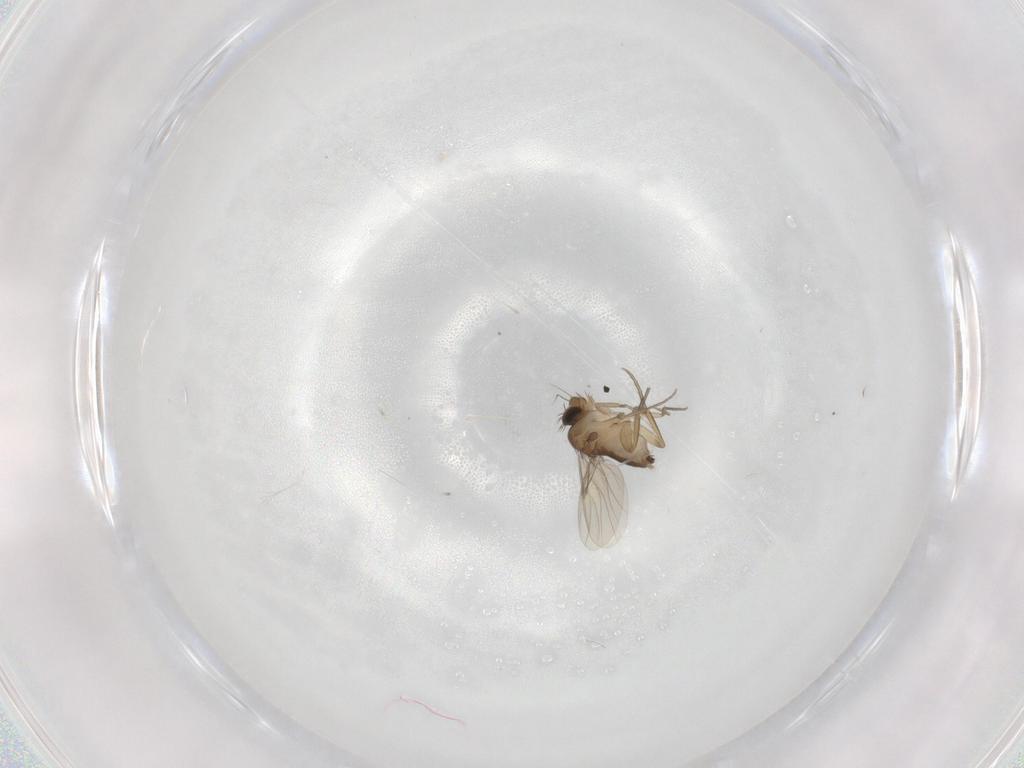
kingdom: Animalia
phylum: Arthropoda
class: Insecta
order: Diptera
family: Phoridae
